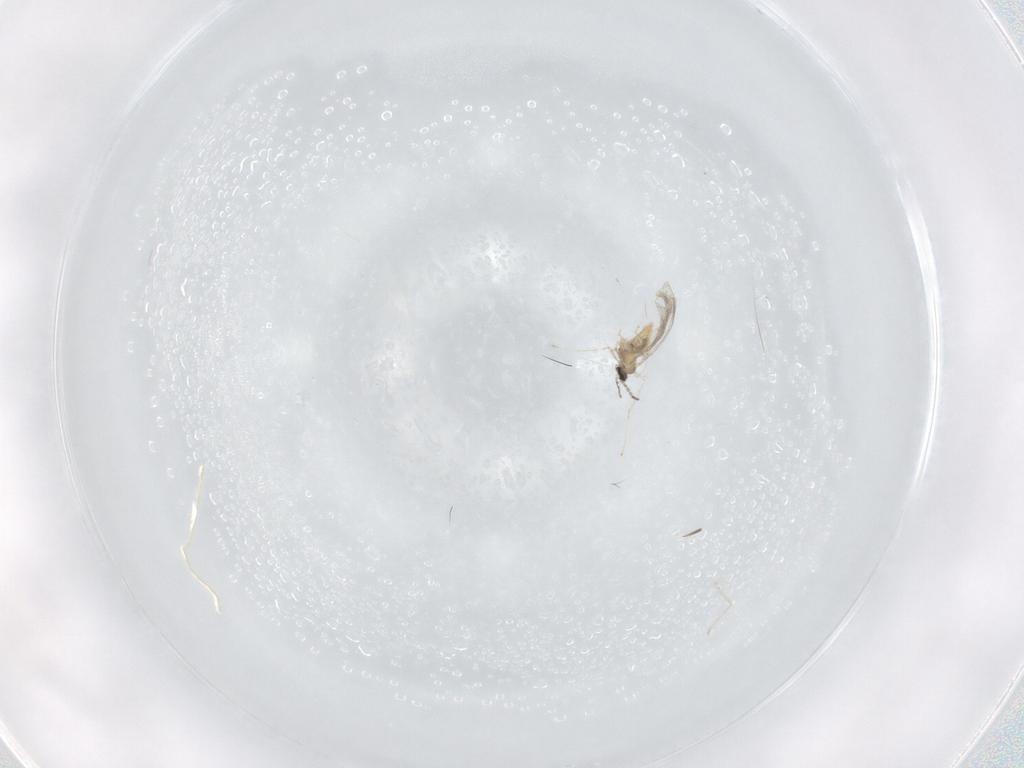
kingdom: Animalia
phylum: Arthropoda
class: Insecta
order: Diptera
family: Cecidomyiidae
